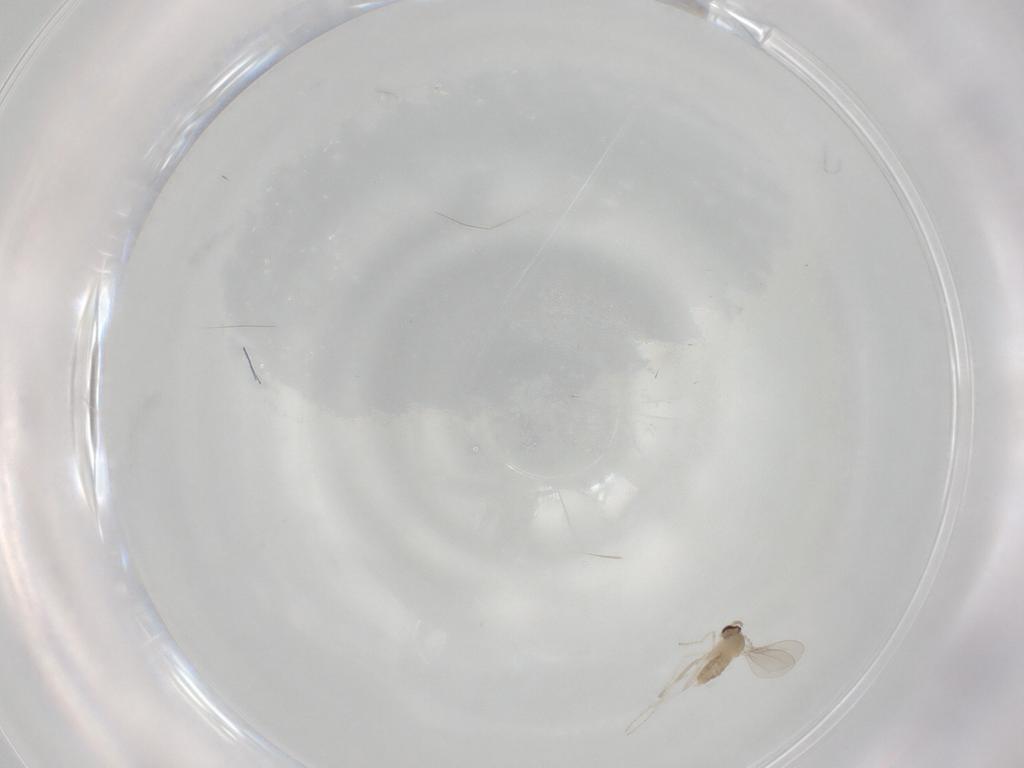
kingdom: Animalia
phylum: Arthropoda
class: Insecta
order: Diptera
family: Cecidomyiidae
